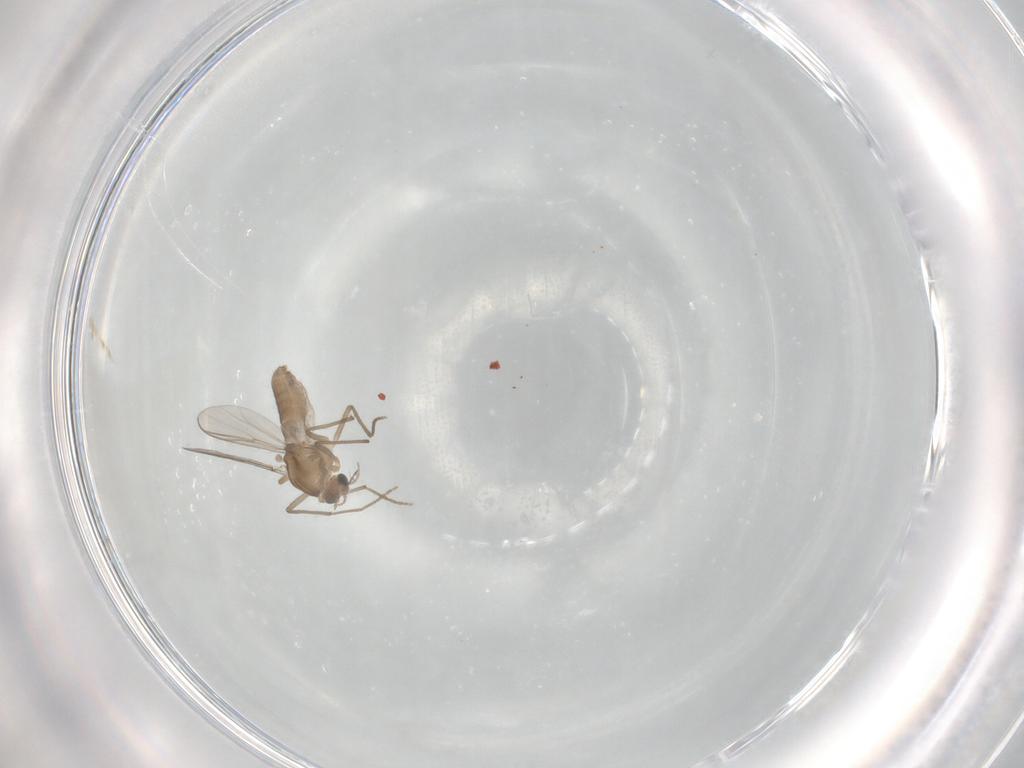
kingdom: Animalia
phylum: Arthropoda
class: Insecta
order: Diptera
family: Chironomidae
